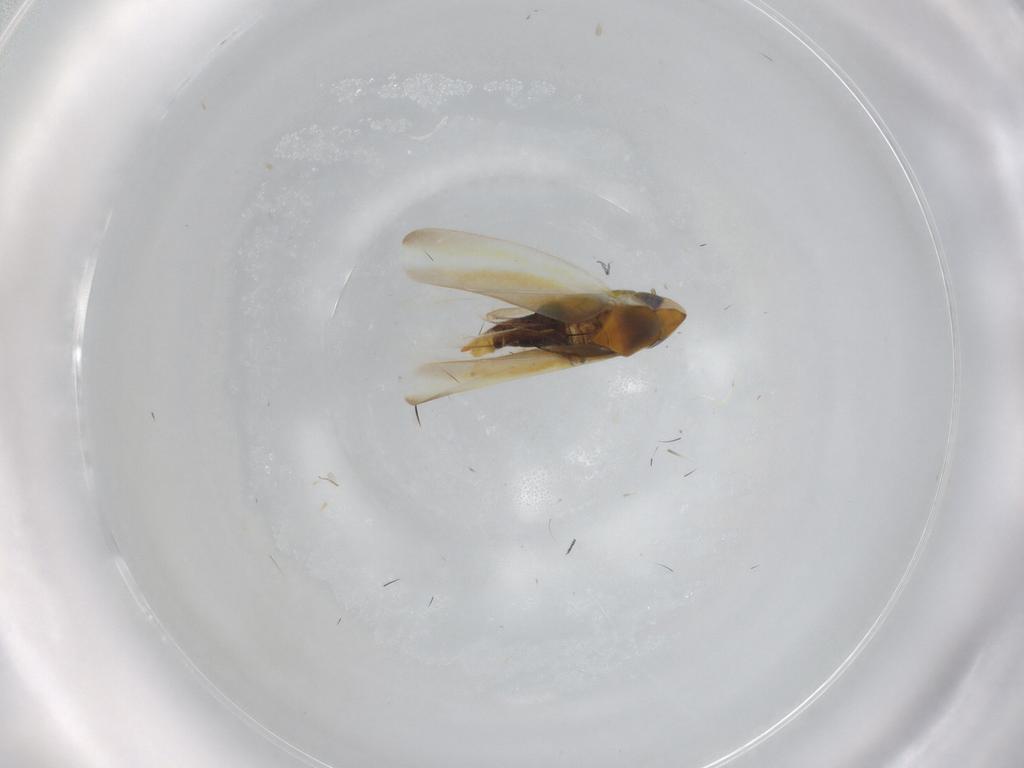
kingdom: Animalia
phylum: Arthropoda
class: Insecta
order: Hemiptera
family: Cicadellidae
